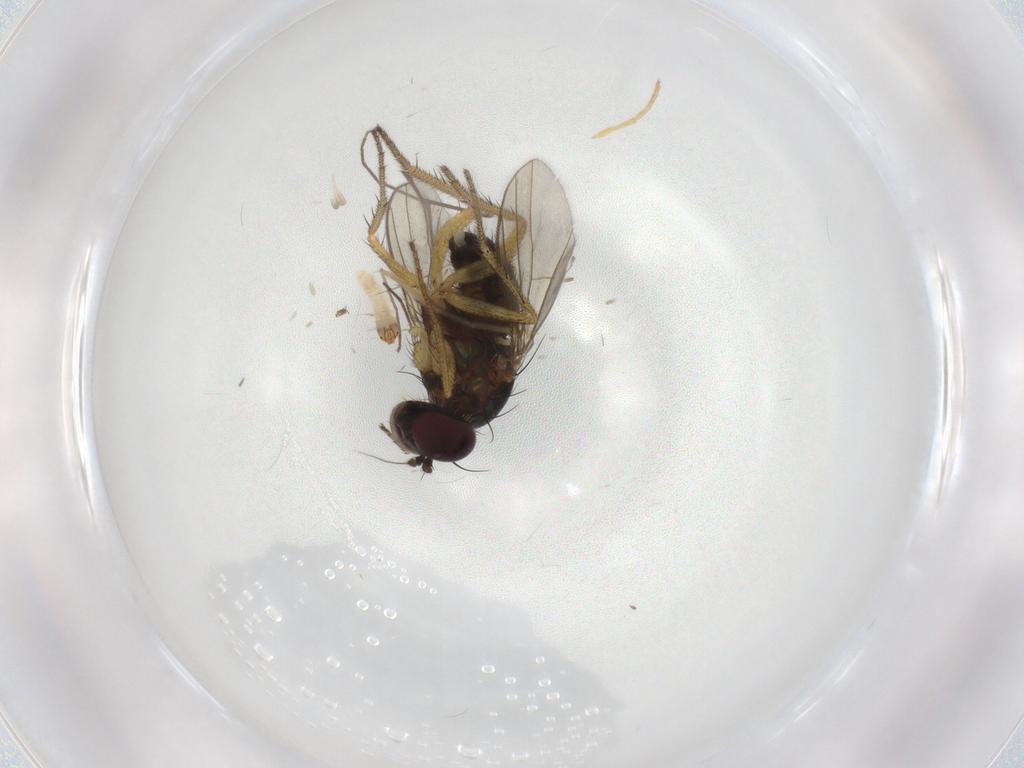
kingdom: Animalia
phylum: Arthropoda
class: Insecta
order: Diptera
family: Chironomidae
